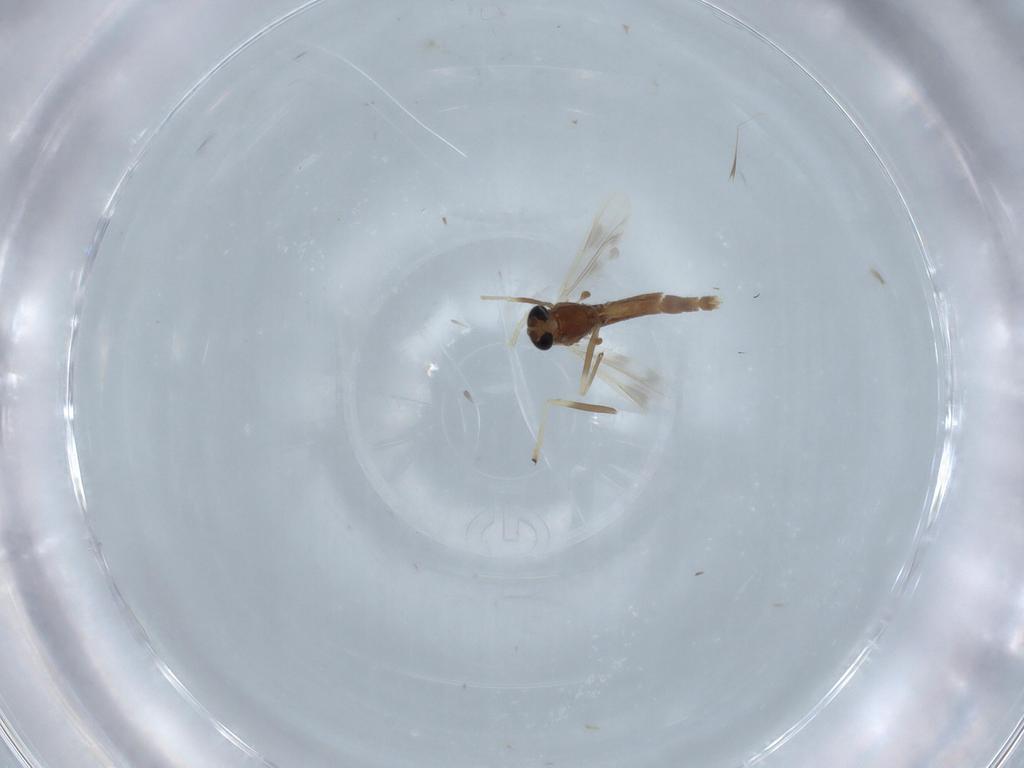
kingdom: Animalia
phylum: Arthropoda
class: Insecta
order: Diptera
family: Chironomidae
